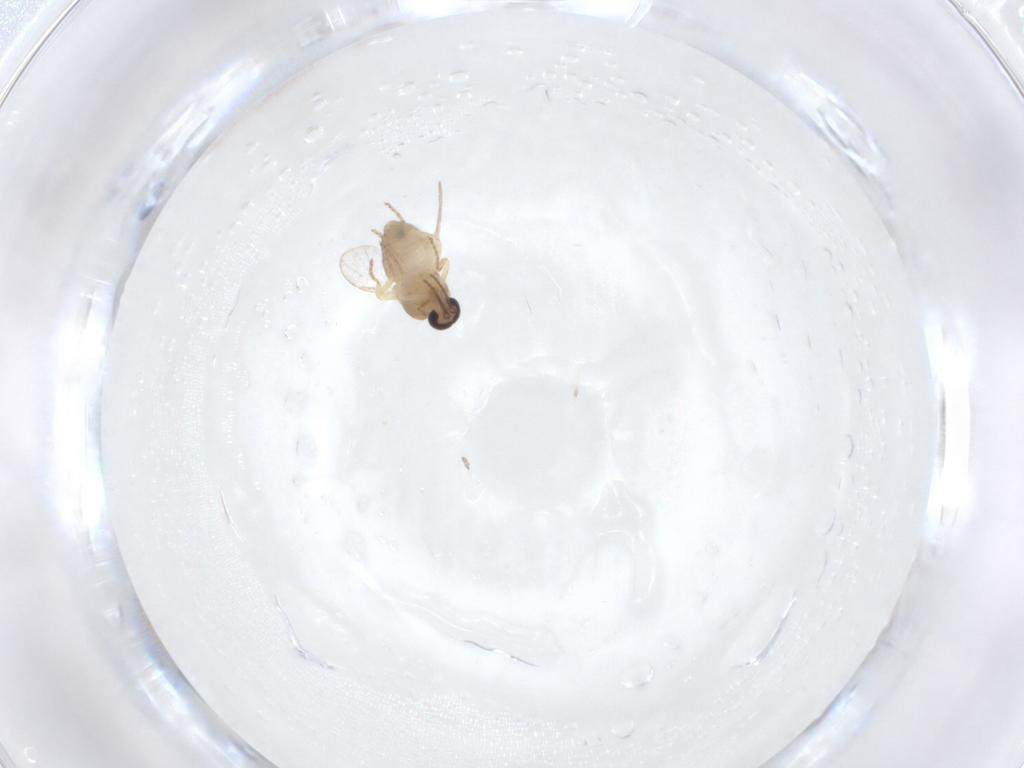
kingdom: Animalia
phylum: Arthropoda
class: Insecta
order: Diptera
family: Ceratopogonidae
